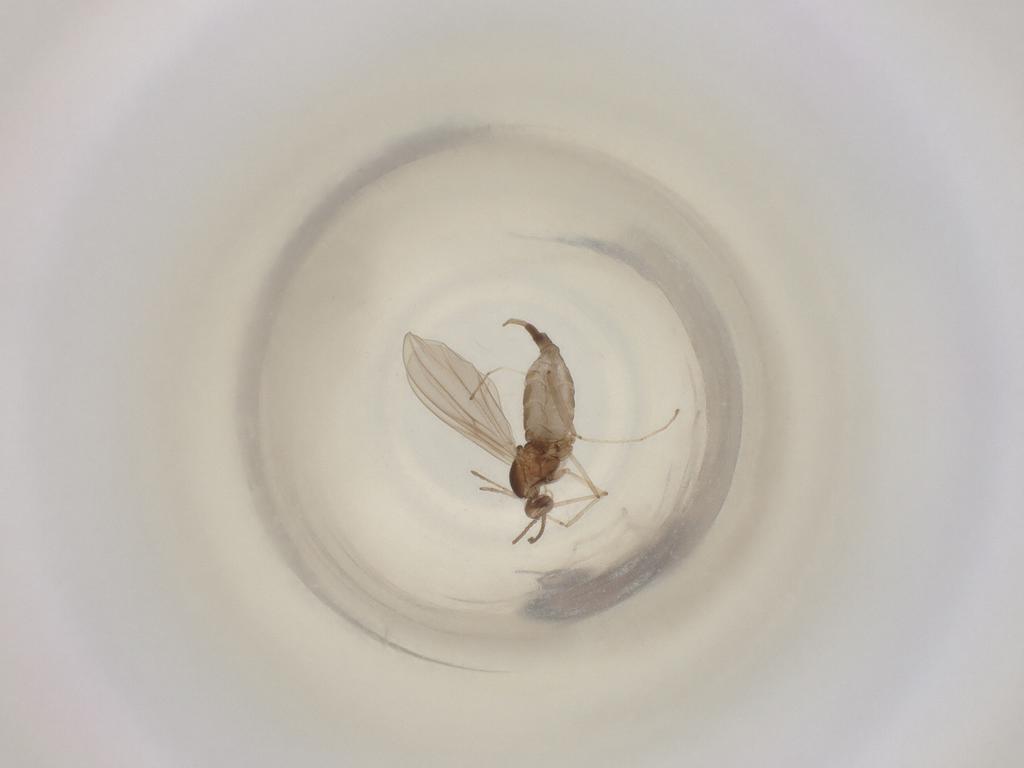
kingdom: Animalia
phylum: Arthropoda
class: Insecta
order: Diptera
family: Cecidomyiidae
